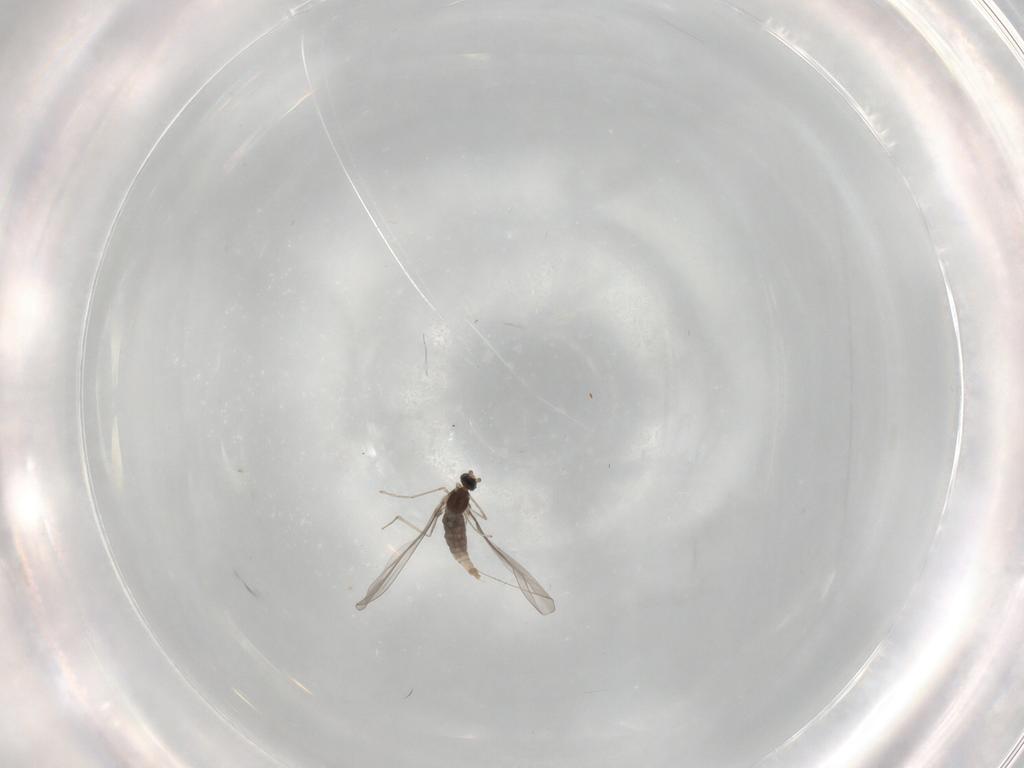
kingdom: Animalia
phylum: Arthropoda
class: Insecta
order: Diptera
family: Cecidomyiidae
